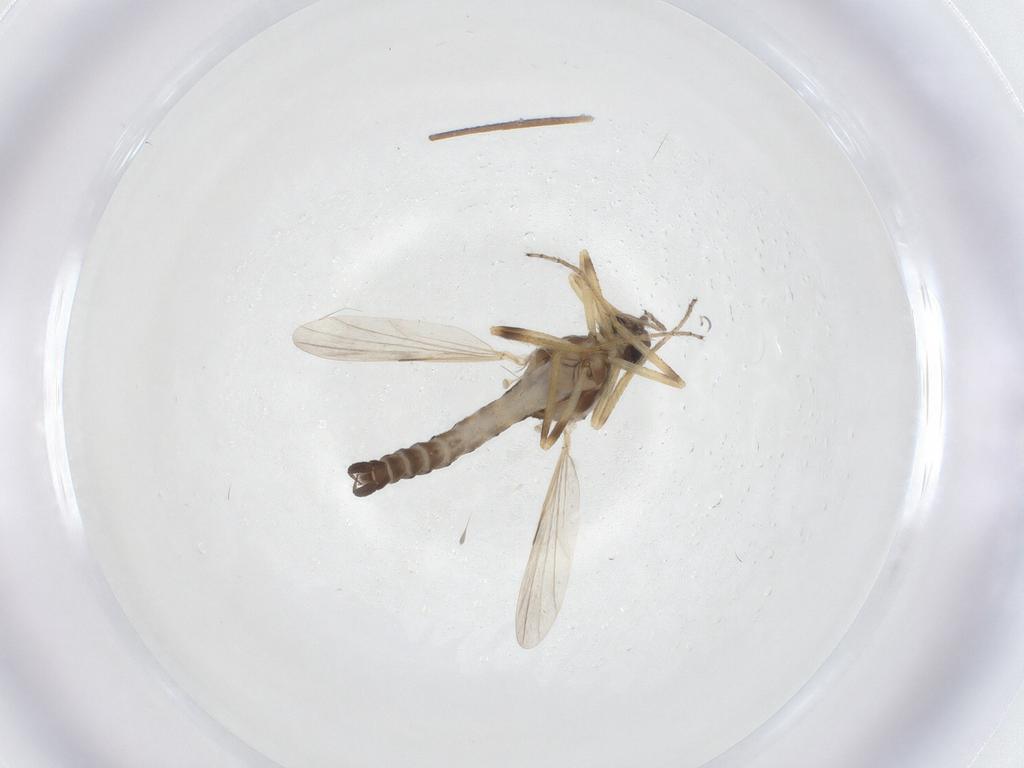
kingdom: Animalia
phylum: Arthropoda
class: Insecta
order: Diptera
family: Ceratopogonidae
